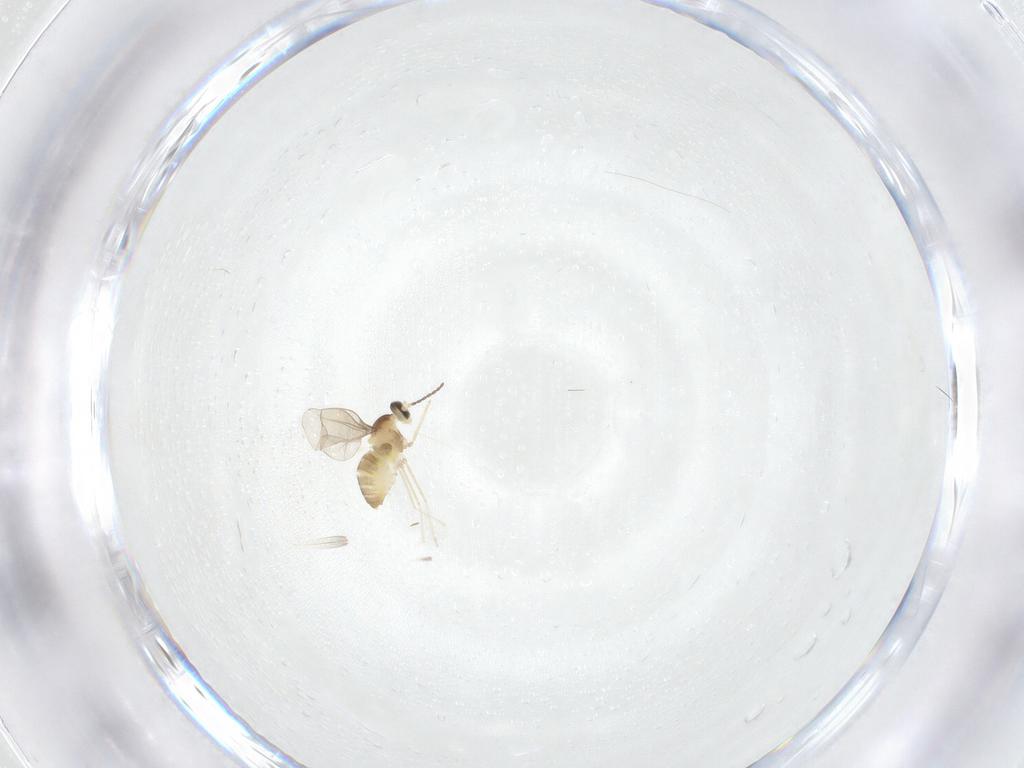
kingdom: Animalia
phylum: Arthropoda
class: Insecta
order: Diptera
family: Cecidomyiidae
